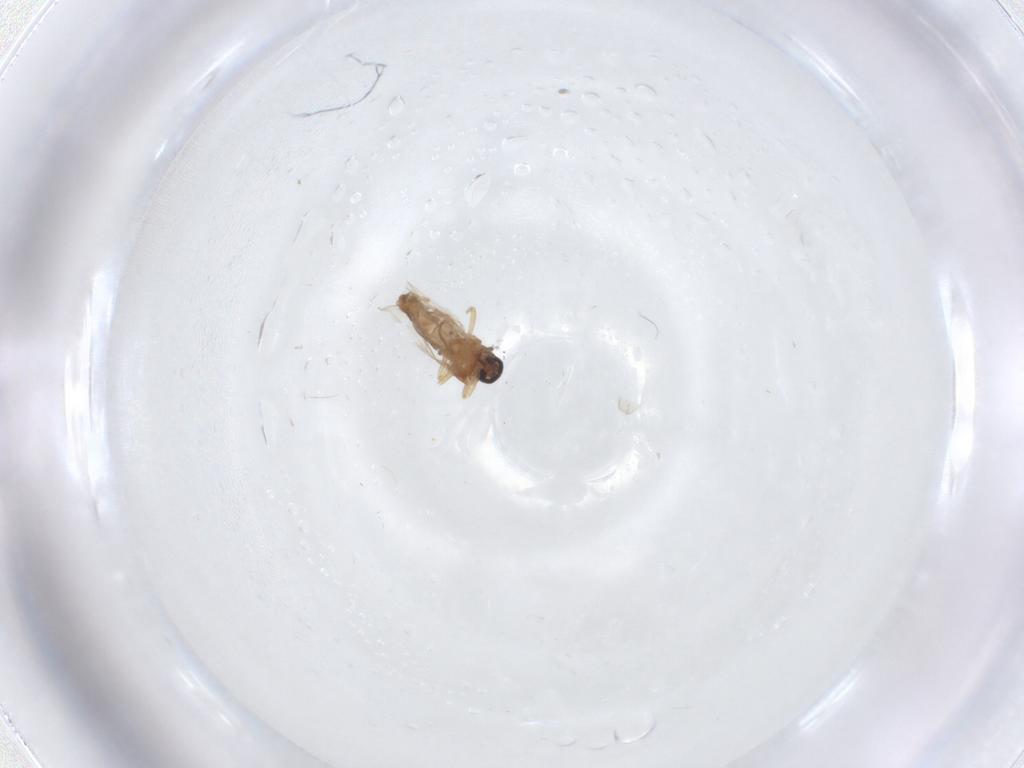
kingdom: Animalia
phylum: Arthropoda
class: Insecta
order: Diptera
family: Ceratopogonidae
